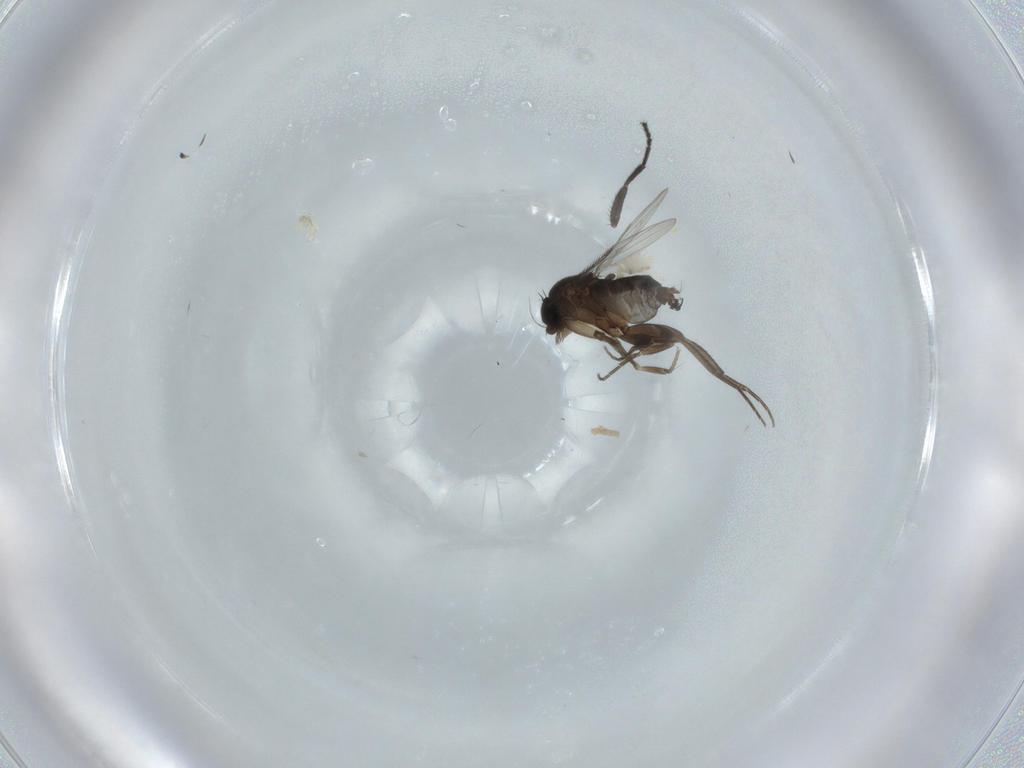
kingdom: Animalia
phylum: Arthropoda
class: Insecta
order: Diptera
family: Phoridae
